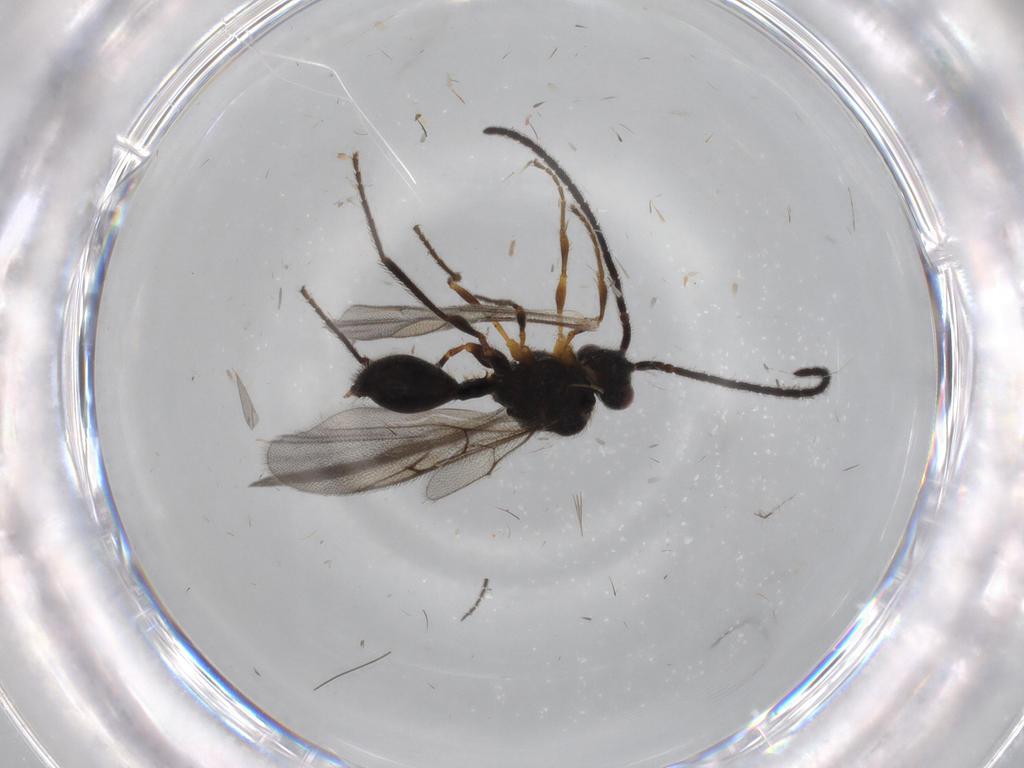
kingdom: Animalia
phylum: Arthropoda
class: Insecta
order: Hymenoptera
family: Diapriidae
